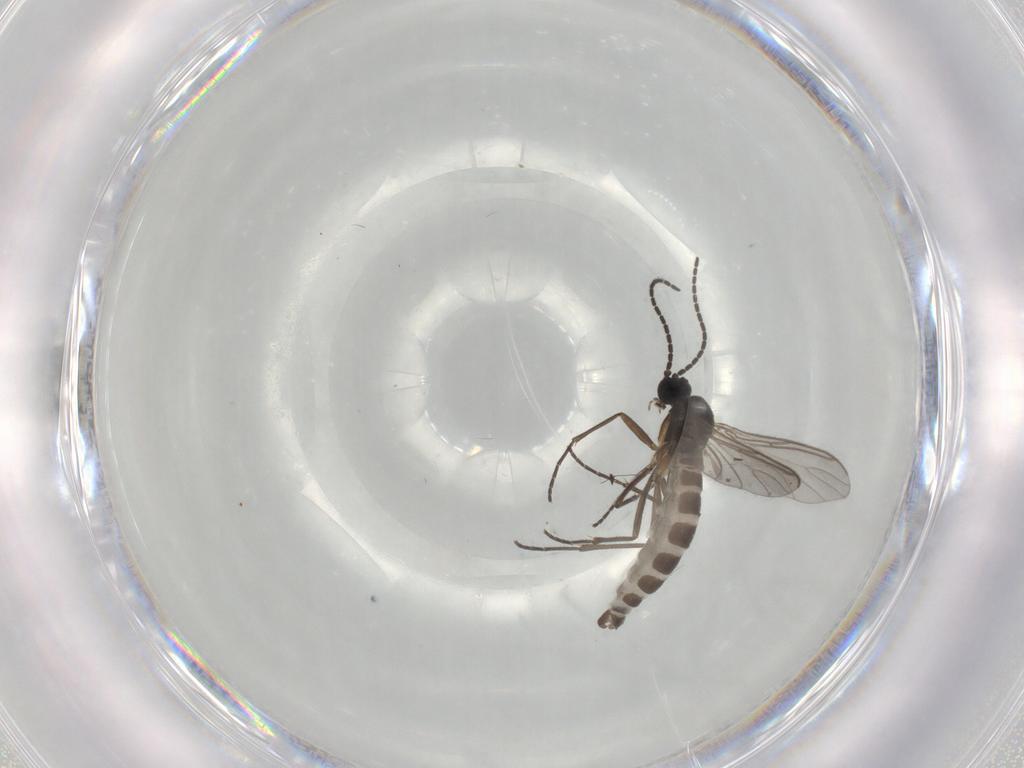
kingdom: Animalia
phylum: Arthropoda
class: Insecta
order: Diptera
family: Sciaridae
